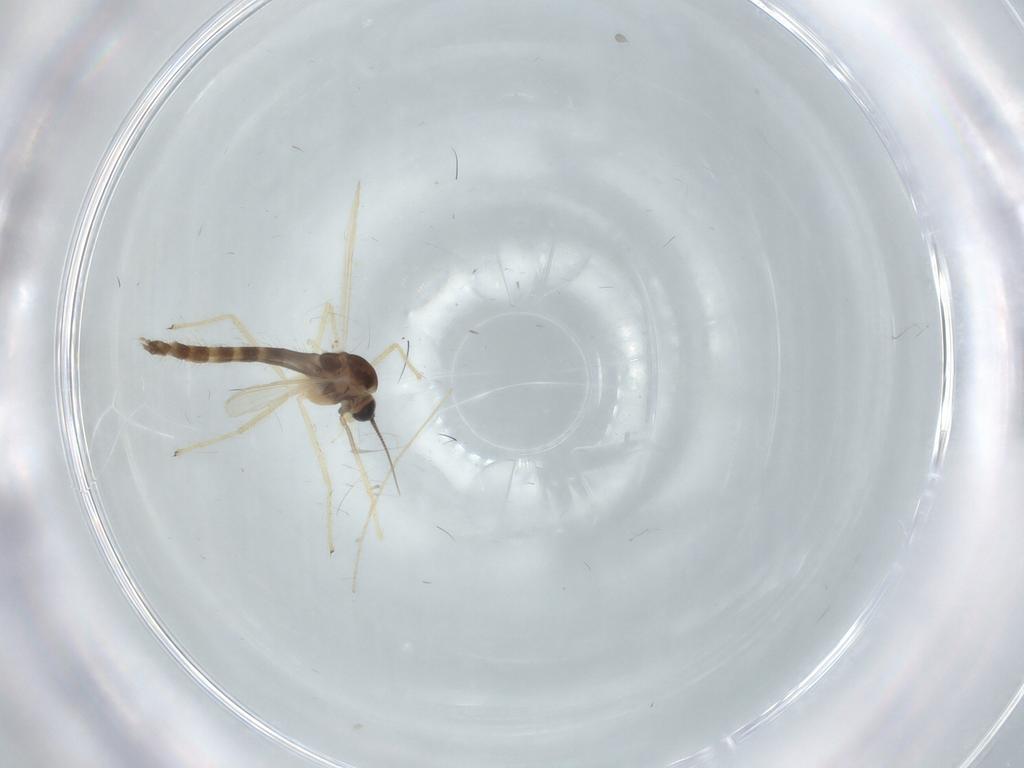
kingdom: Animalia
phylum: Arthropoda
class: Insecta
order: Diptera
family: Chironomidae
